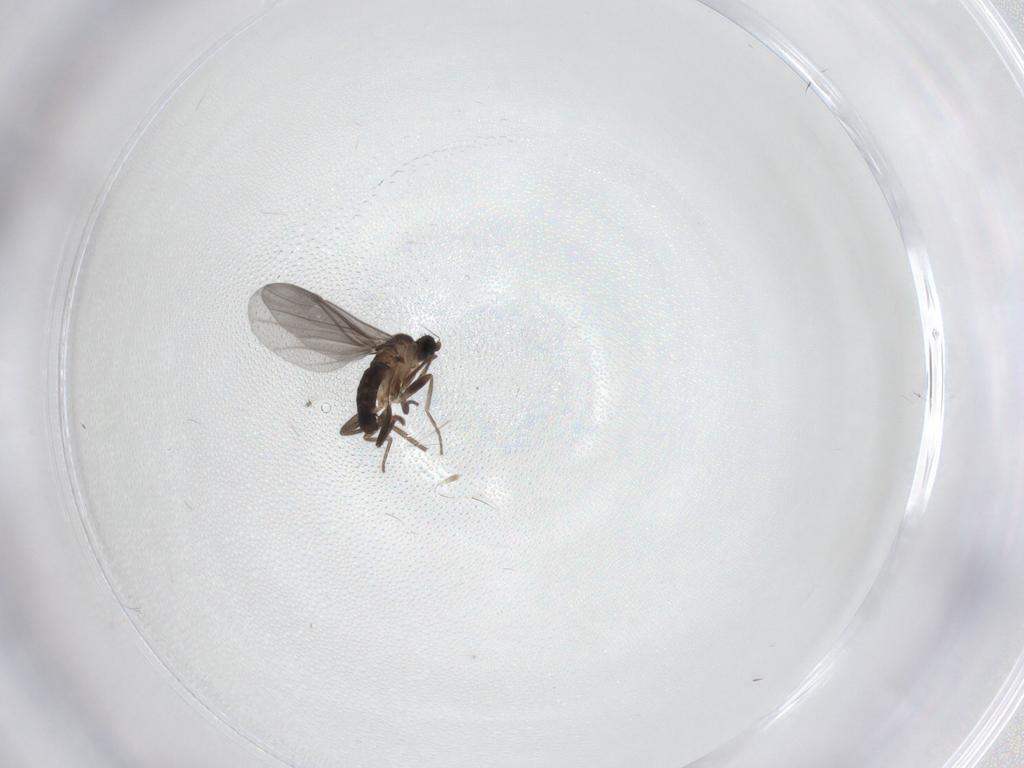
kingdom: Animalia
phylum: Arthropoda
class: Insecta
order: Diptera
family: Phoridae
